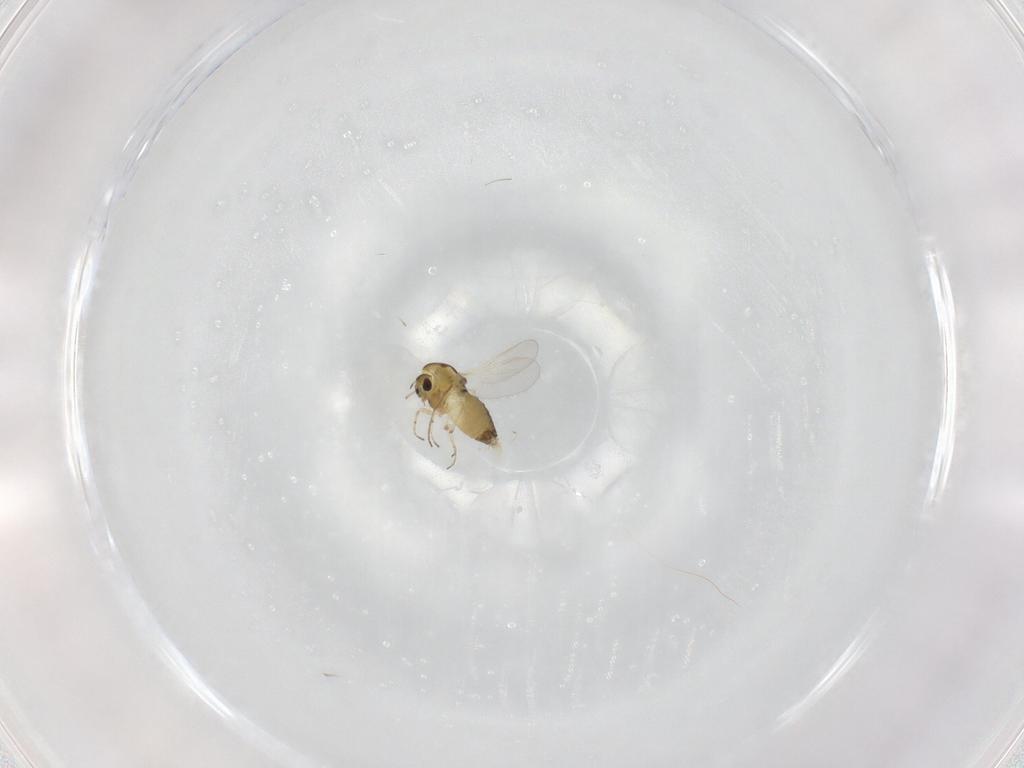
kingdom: Animalia
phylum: Arthropoda
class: Insecta
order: Diptera
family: Chironomidae
